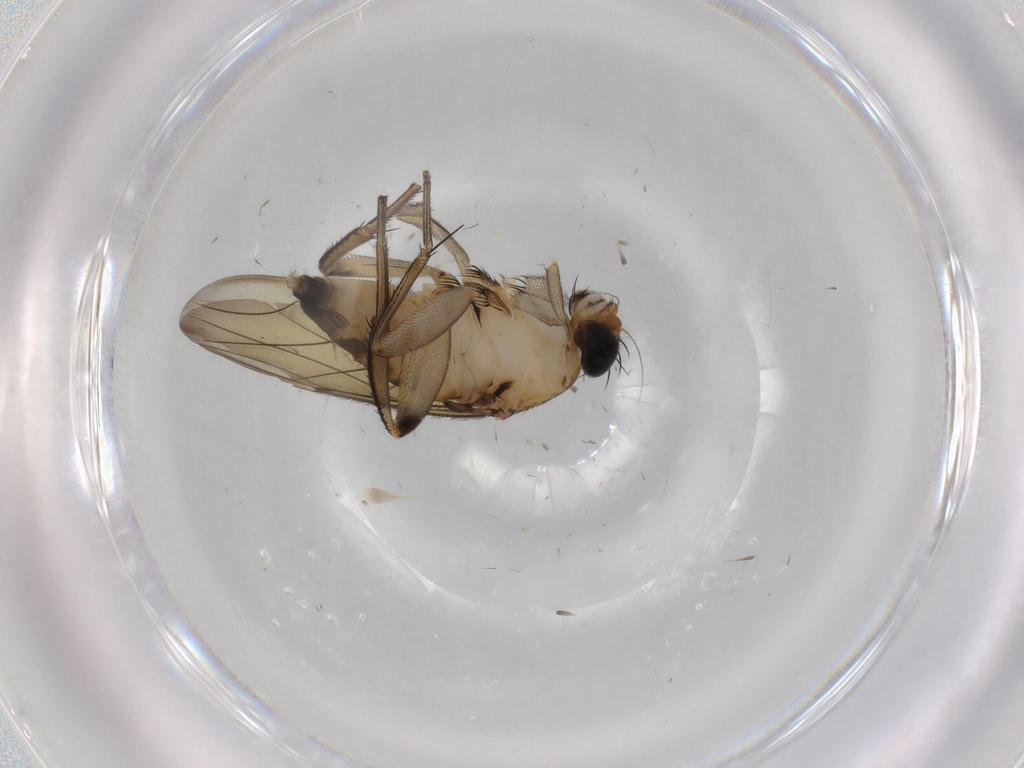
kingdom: Animalia
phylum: Arthropoda
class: Insecta
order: Diptera
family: Phoridae
